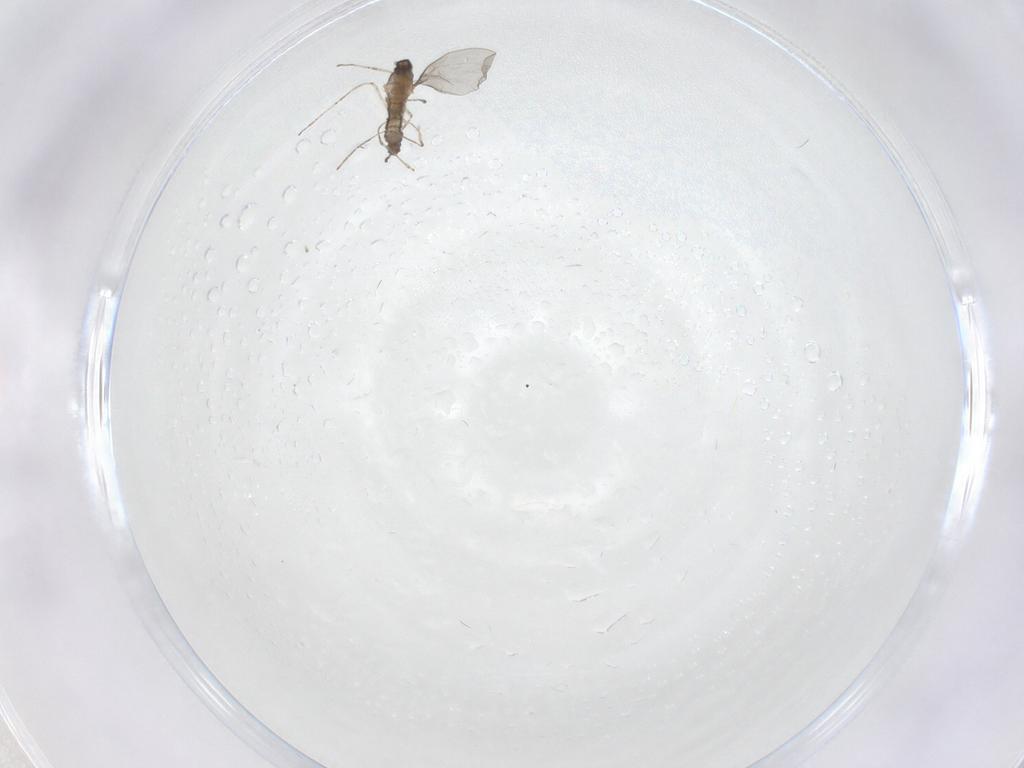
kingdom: Animalia
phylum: Arthropoda
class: Insecta
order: Diptera
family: Cecidomyiidae
